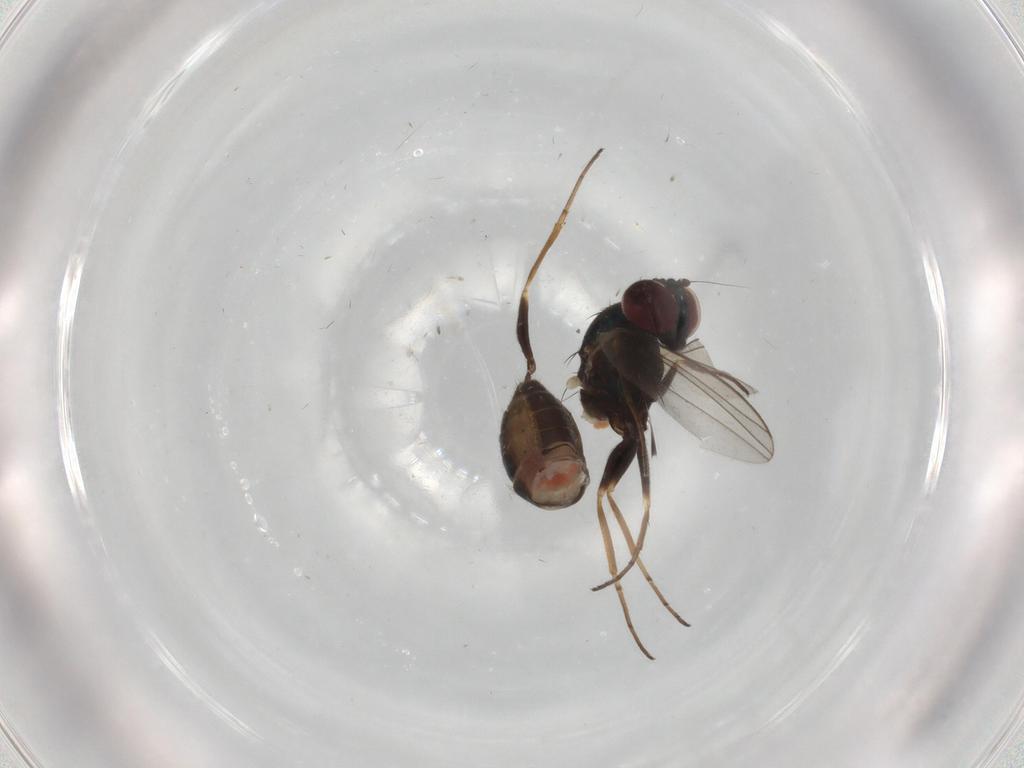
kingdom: Animalia
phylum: Arthropoda
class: Insecta
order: Diptera
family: Dolichopodidae
